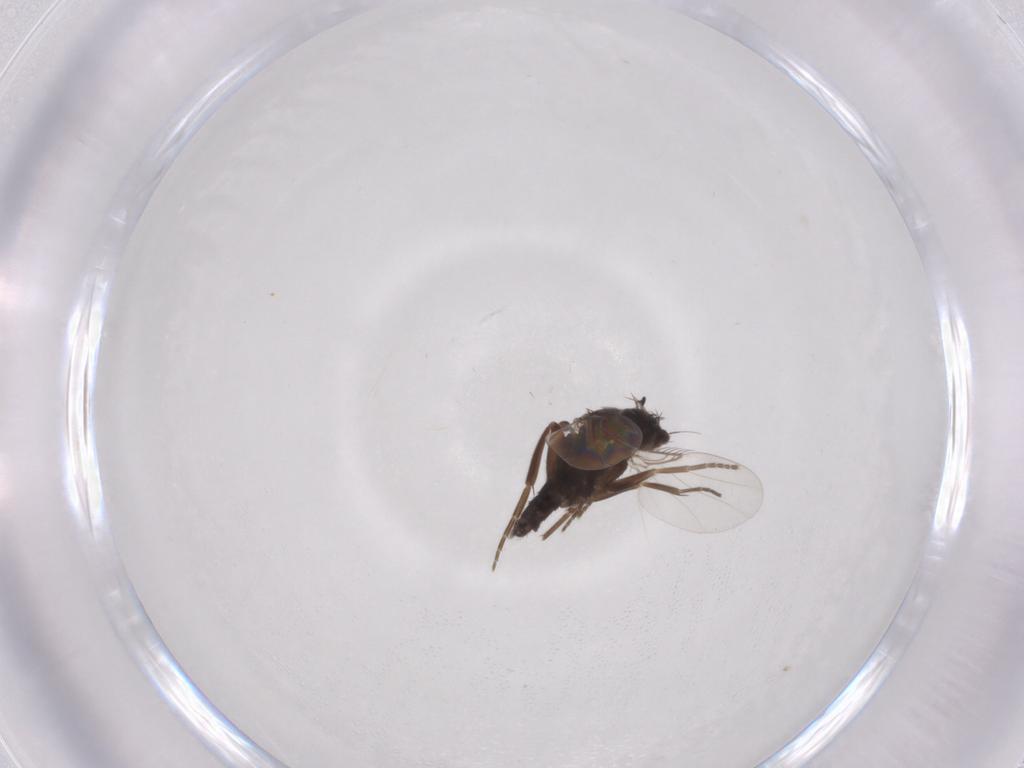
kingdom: Animalia
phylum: Arthropoda
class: Insecta
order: Diptera
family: Phoridae
